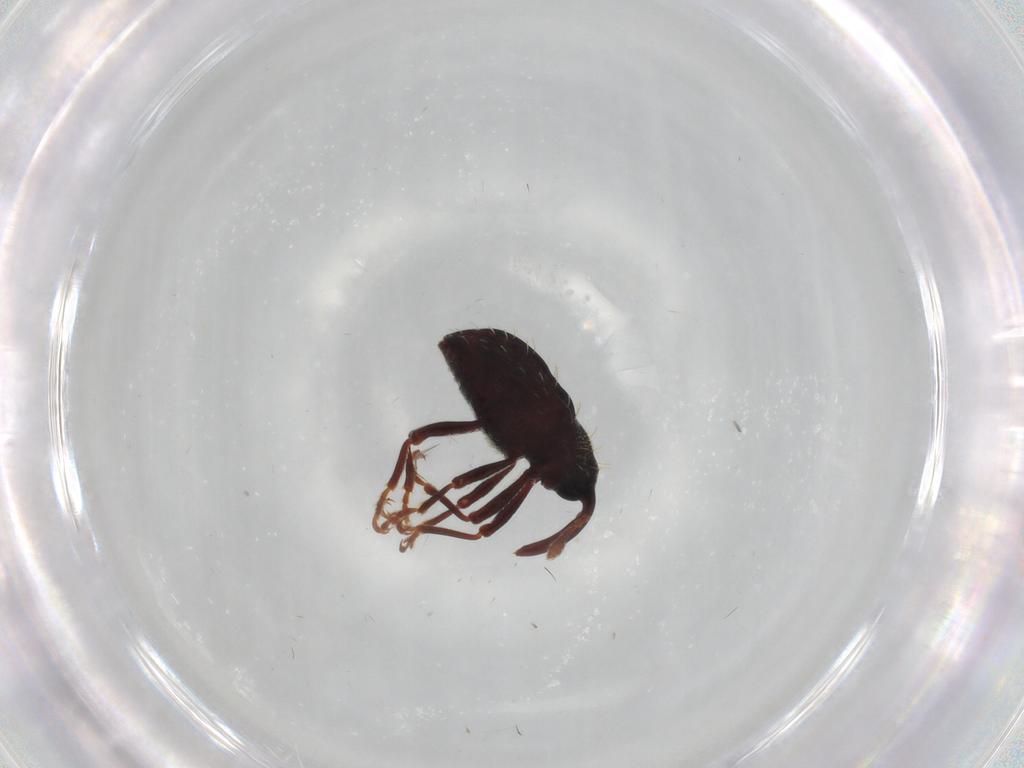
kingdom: Animalia
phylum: Arthropoda
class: Insecta
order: Coleoptera
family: Curculionidae
